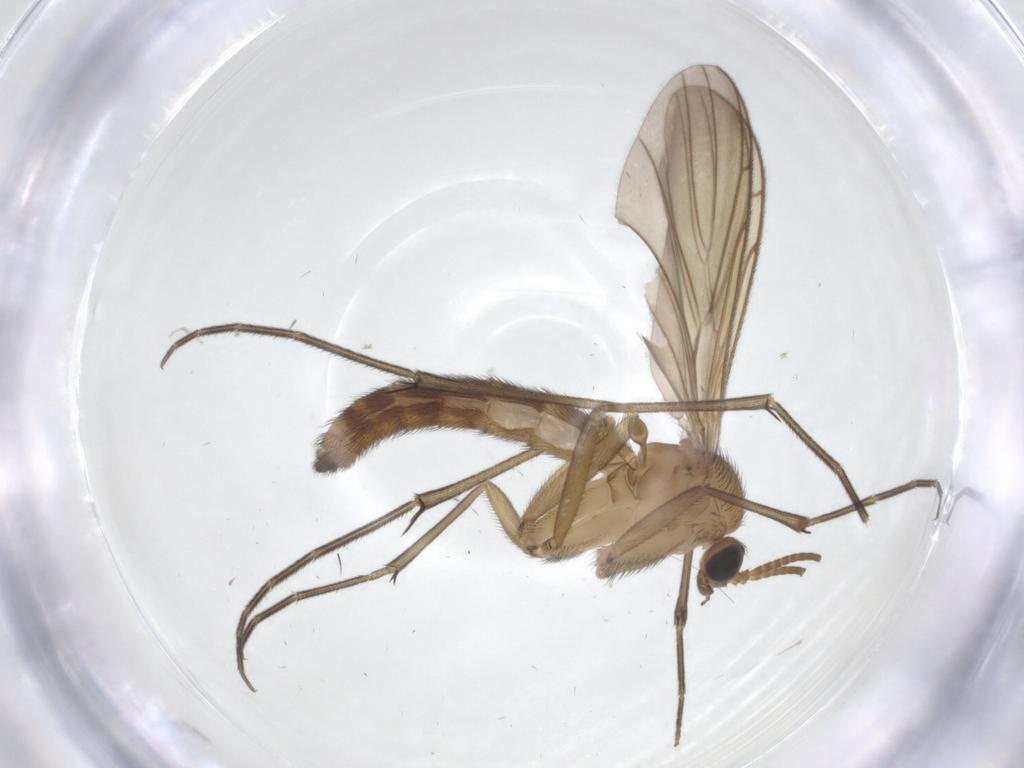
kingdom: Animalia
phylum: Arthropoda
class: Insecta
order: Diptera
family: Keroplatidae
